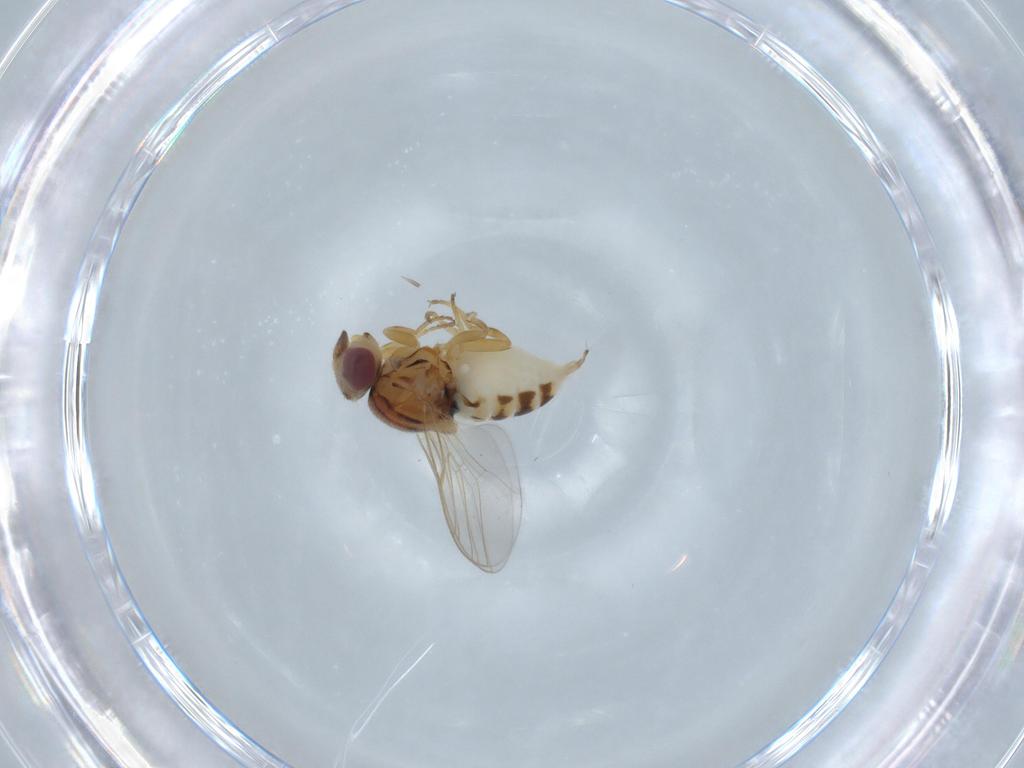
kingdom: Animalia
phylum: Arthropoda
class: Insecta
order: Diptera
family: Chloropidae
